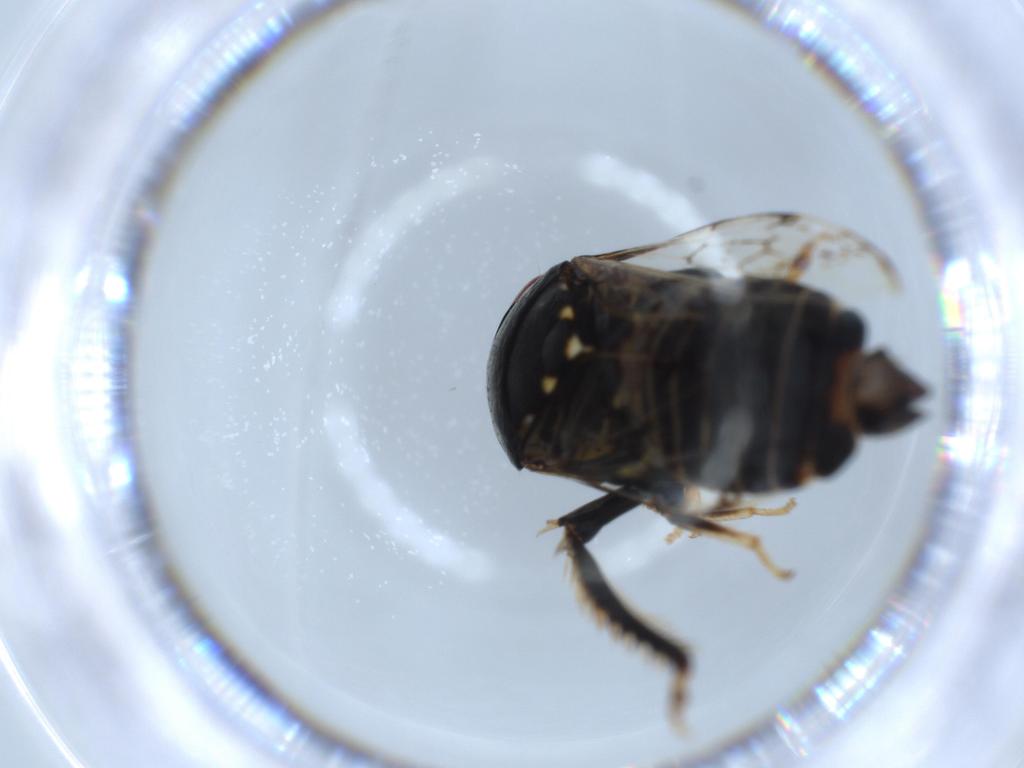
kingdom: Animalia
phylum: Arthropoda
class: Insecta
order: Hemiptera
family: Cicadellidae
